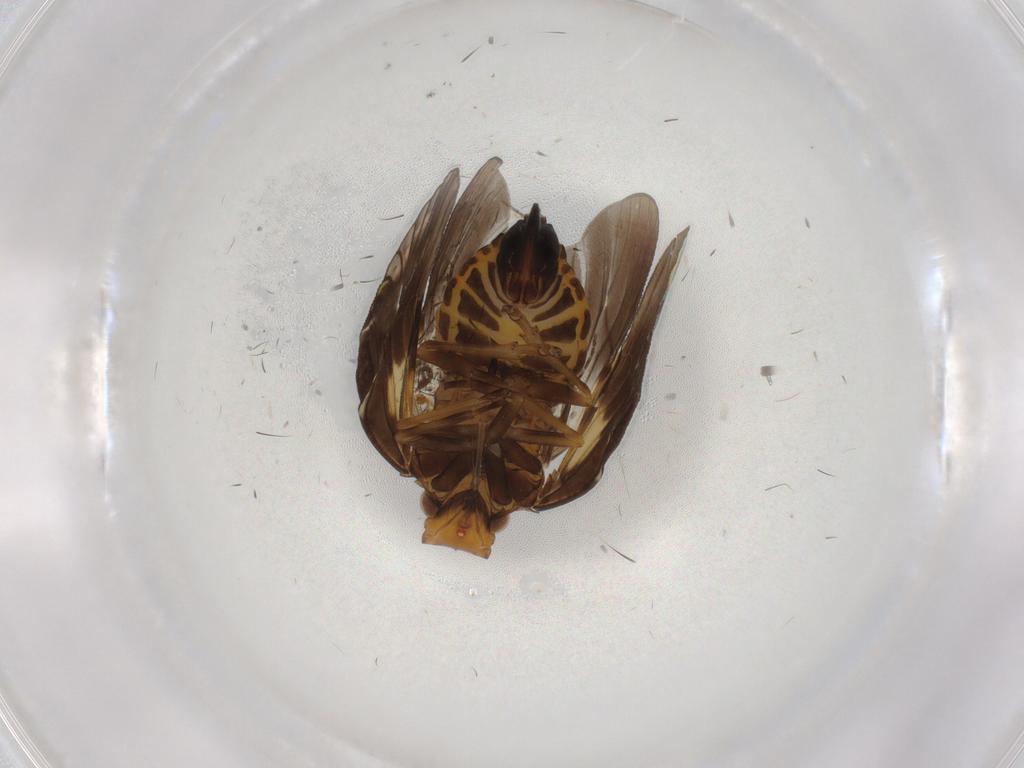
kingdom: Animalia
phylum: Arthropoda
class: Insecta
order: Hemiptera
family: Cixiidae
